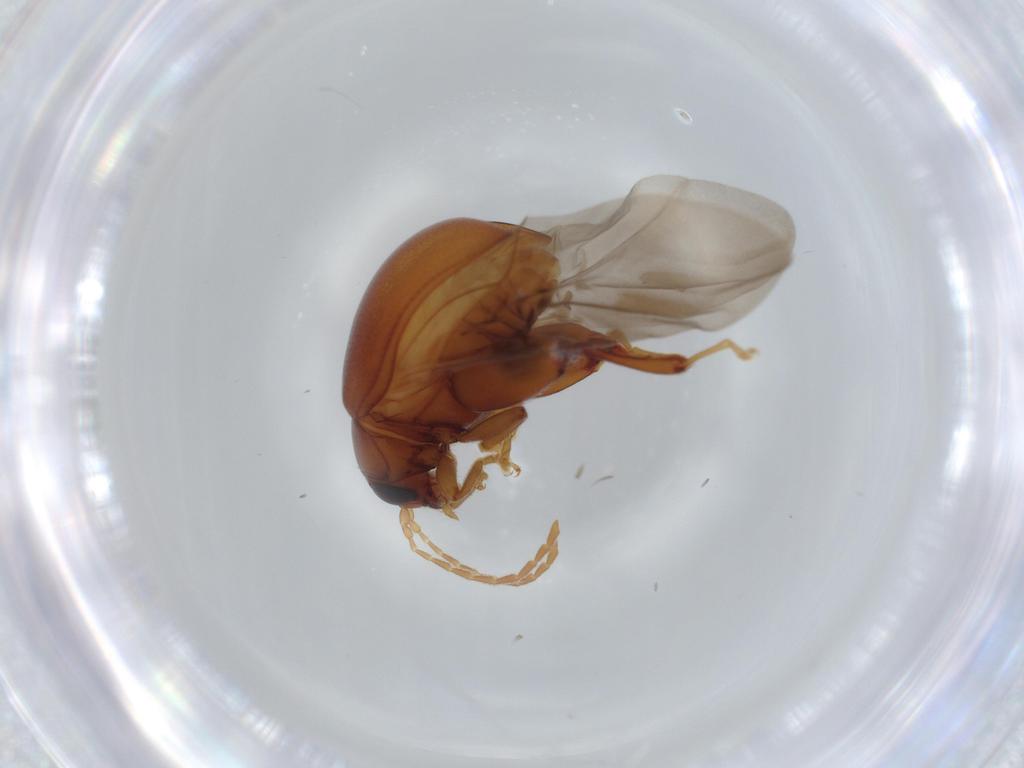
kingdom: Animalia
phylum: Arthropoda
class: Insecta
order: Coleoptera
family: Chrysomelidae
